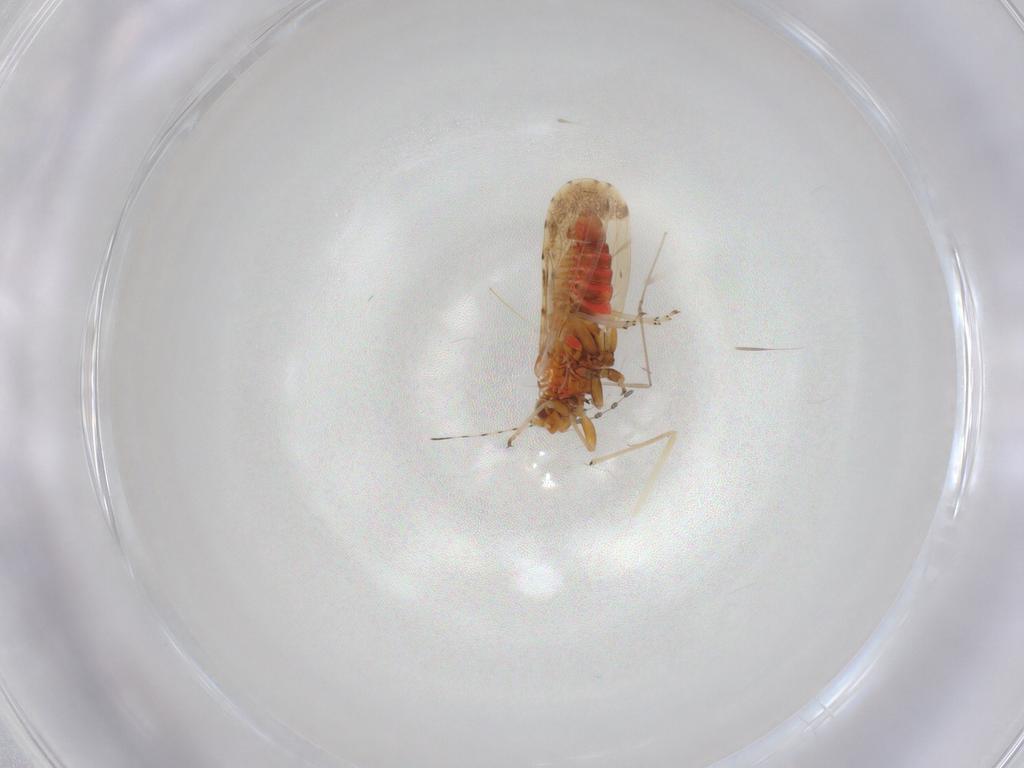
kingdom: Animalia
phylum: Arthropoda
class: Insecta
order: Hemiptera
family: Psyllidae
